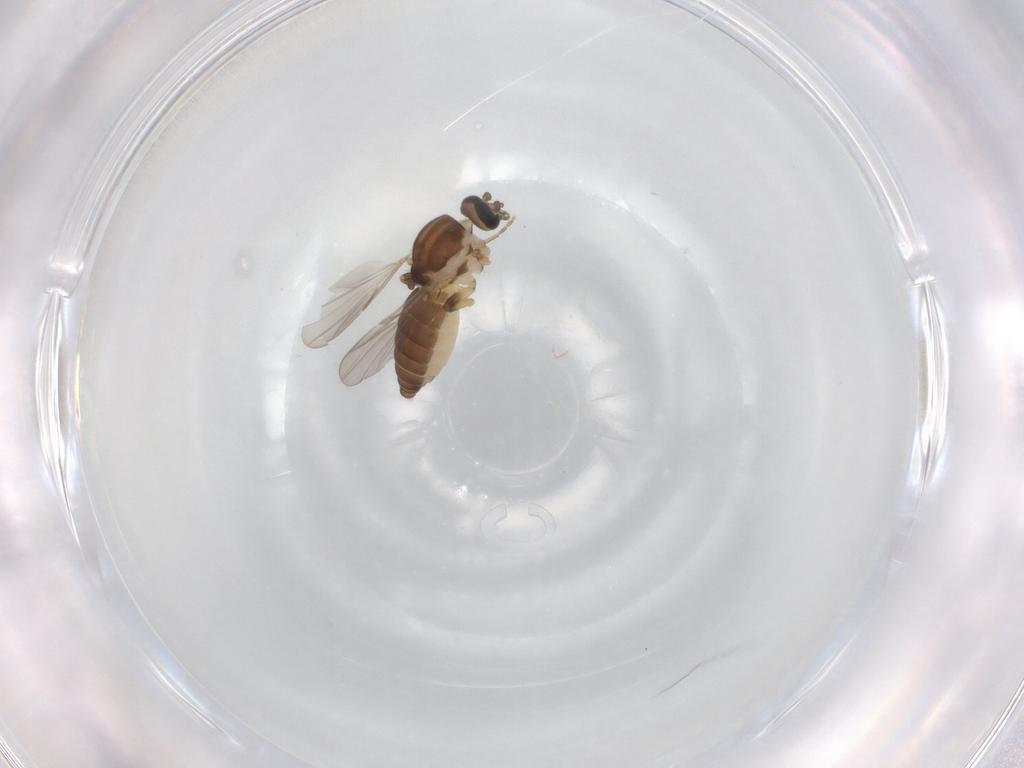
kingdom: Animalia
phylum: Arthropoda
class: Insecta
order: Diptera
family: Ceratopogonidae
